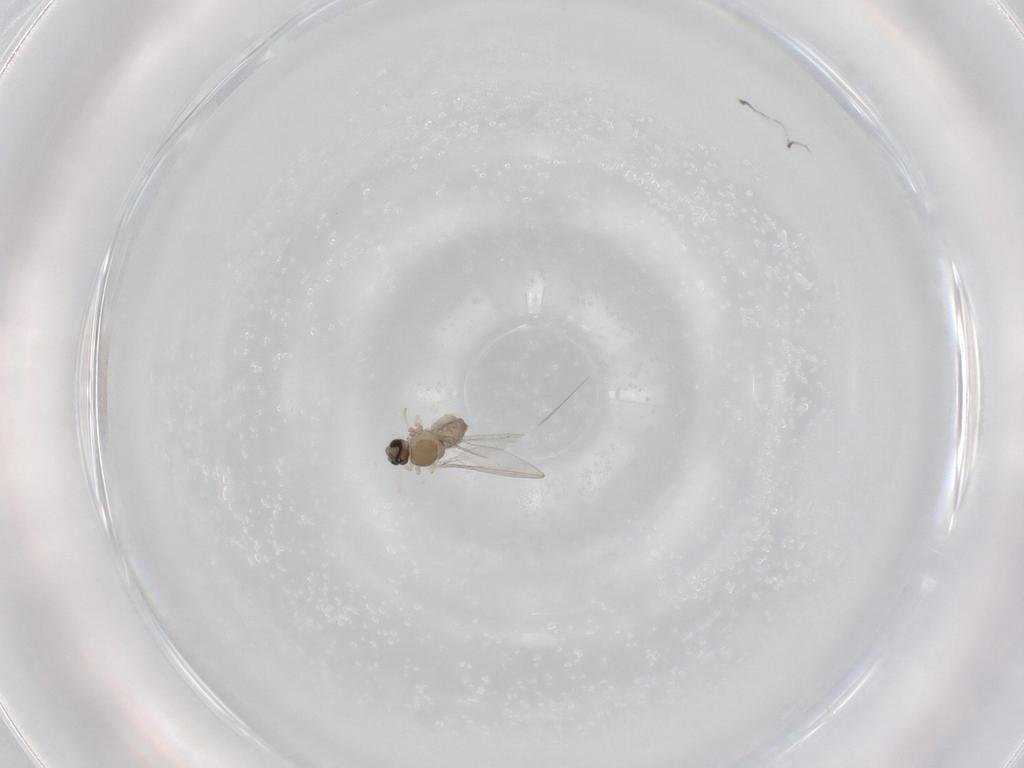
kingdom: Animalia
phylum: Arthropoda
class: Insecta
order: Diptera
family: Cecidomyiidae
